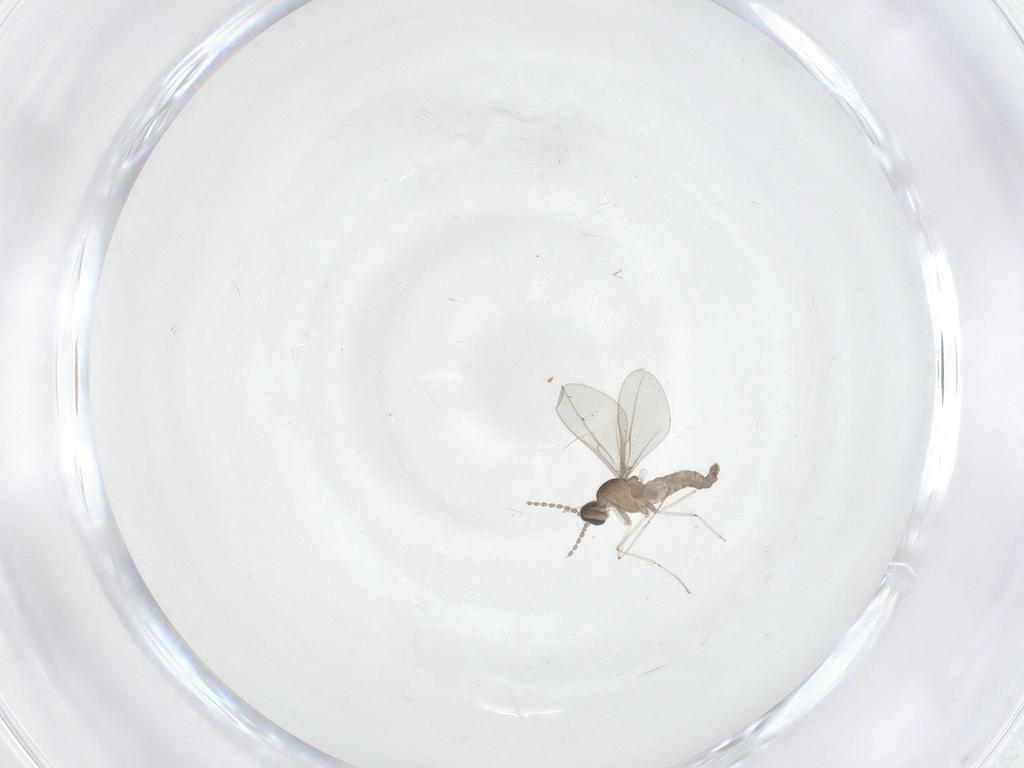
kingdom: Animalia
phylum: Arthropoda
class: Insecta
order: Diptera
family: Cecidomyiidae
